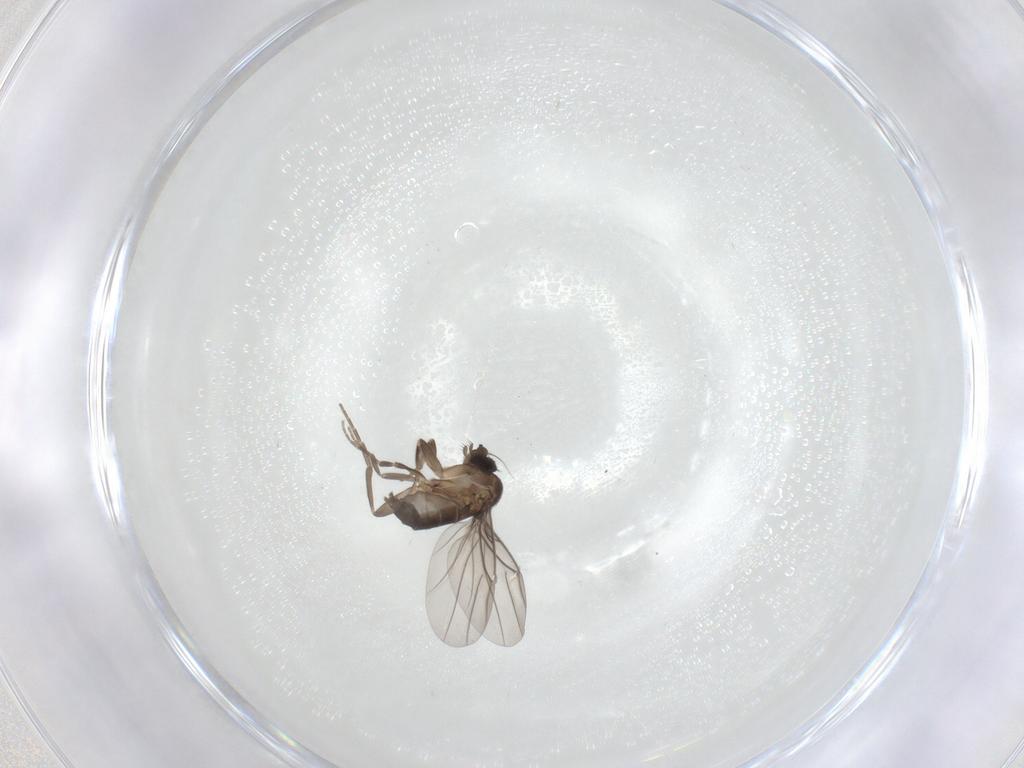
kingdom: Animalia
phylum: Arthropoda
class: Insecta
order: Diptera
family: Phoridae
